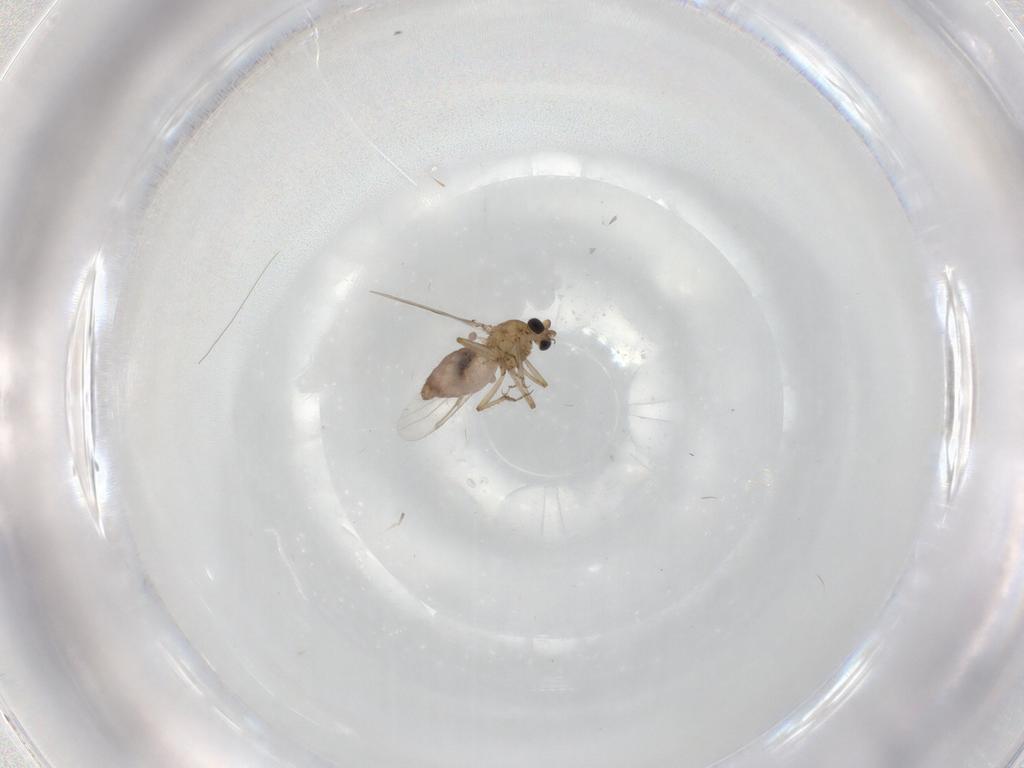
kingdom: Animalia
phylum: Arthropoda
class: Insecta
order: Diptera
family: Ceratopogonidae
